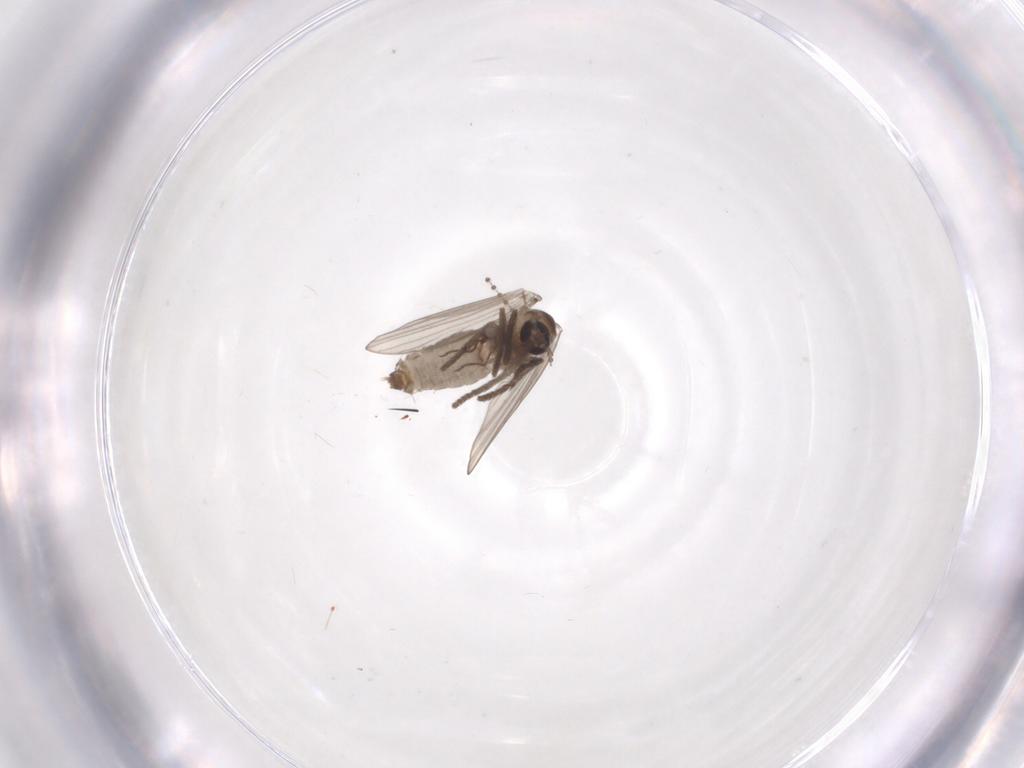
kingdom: Animalia
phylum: Arthropoda
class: Insecta
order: Diptera
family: Psychodidae
